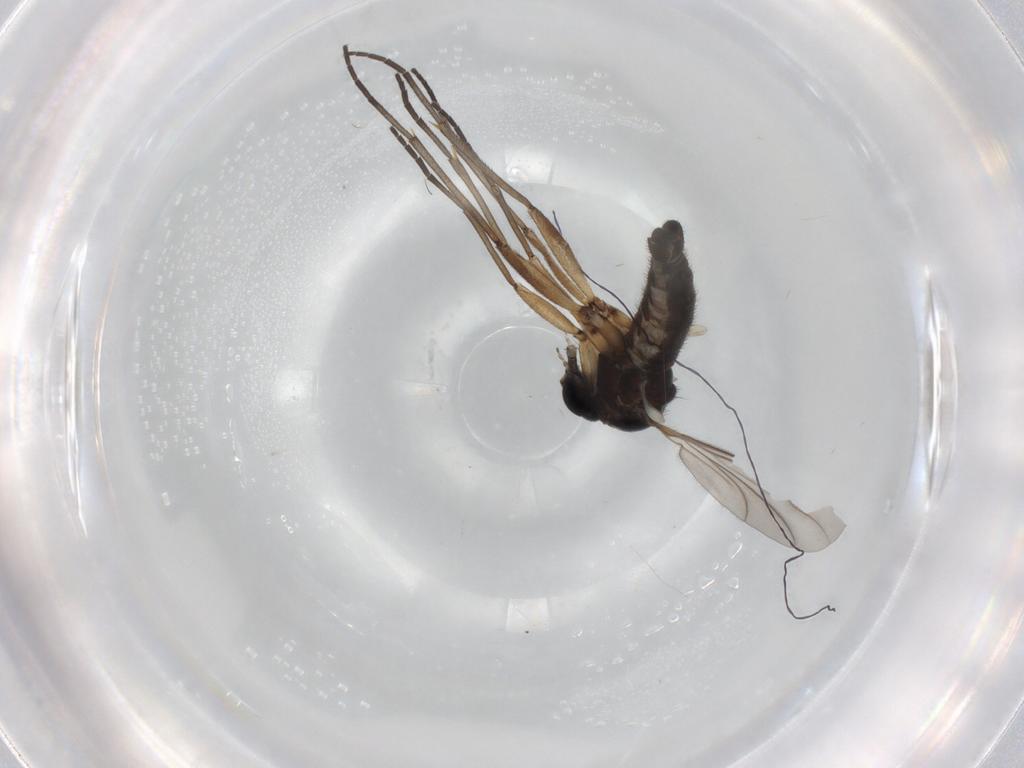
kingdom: Animalia
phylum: Arthropoda
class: Insecta
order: Diptera
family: Sciaridae
